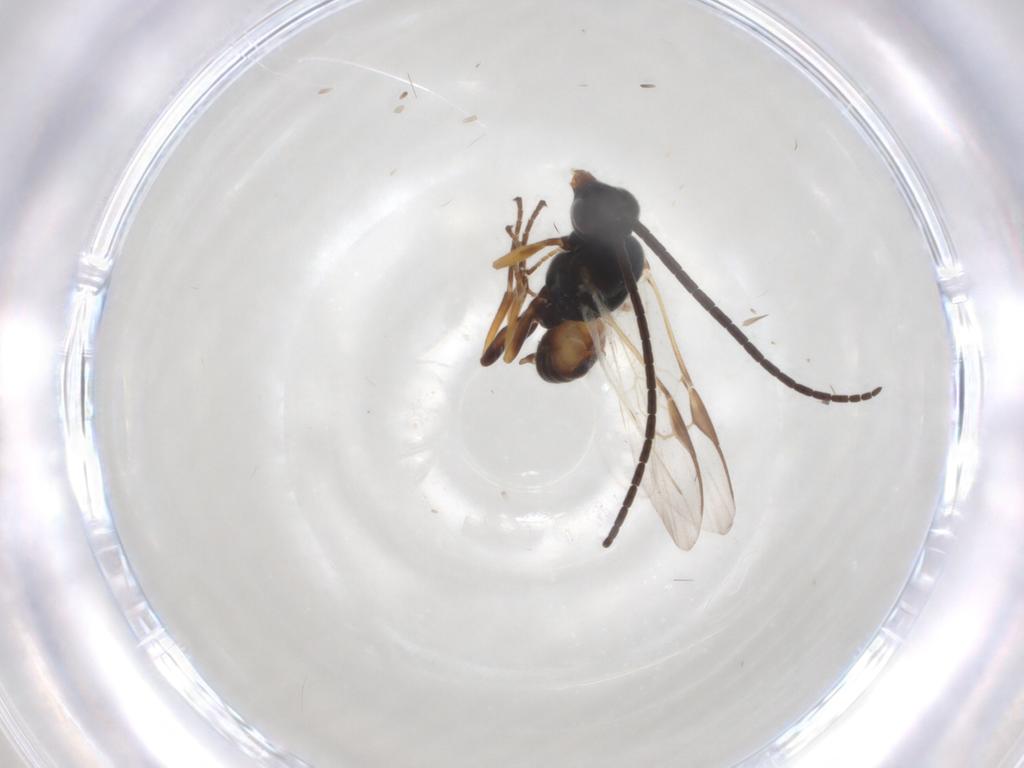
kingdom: Animalia
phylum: Arthropoda
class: Insecta
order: Hymenoptera
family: Braconidae
